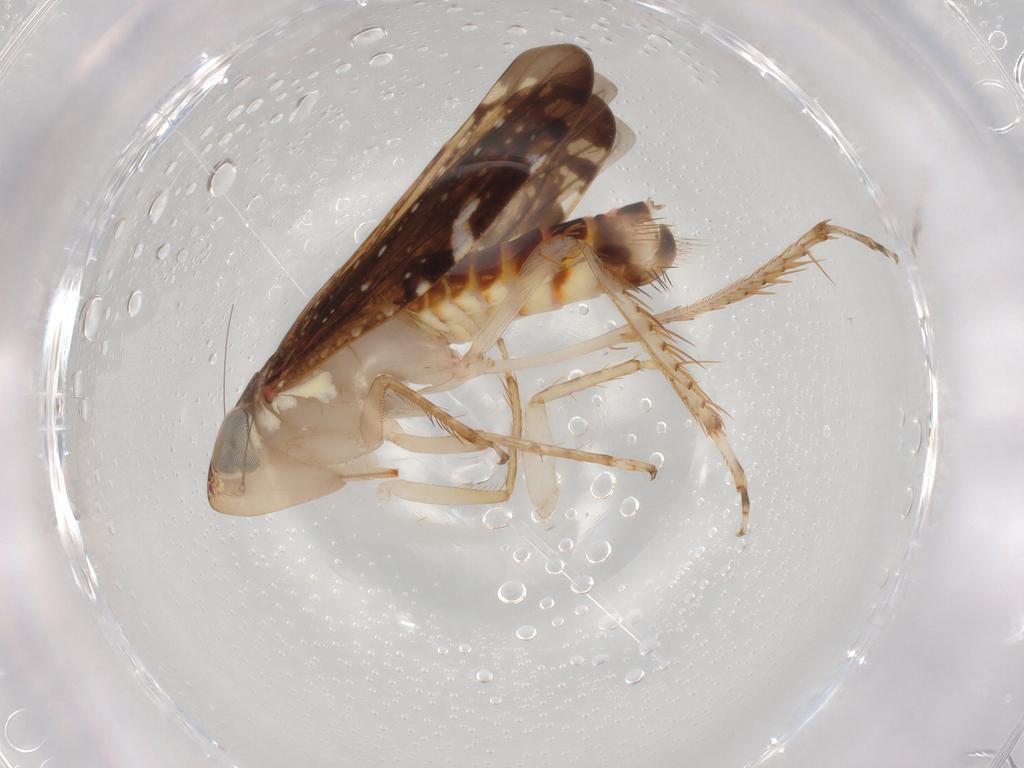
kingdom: Animalia
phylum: Arthropoda
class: Insecta
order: Hemiptera
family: Cicadellidae
